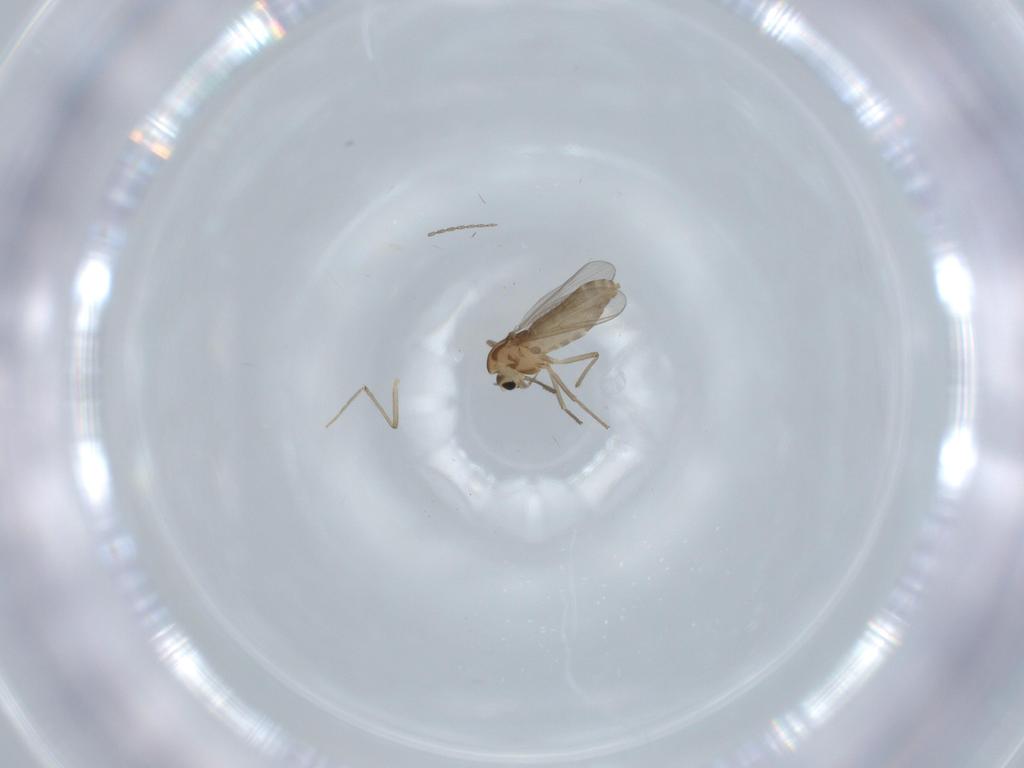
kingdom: Animalia
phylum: Arthropoda
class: Insecta
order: Diptera
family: Chironomidae
